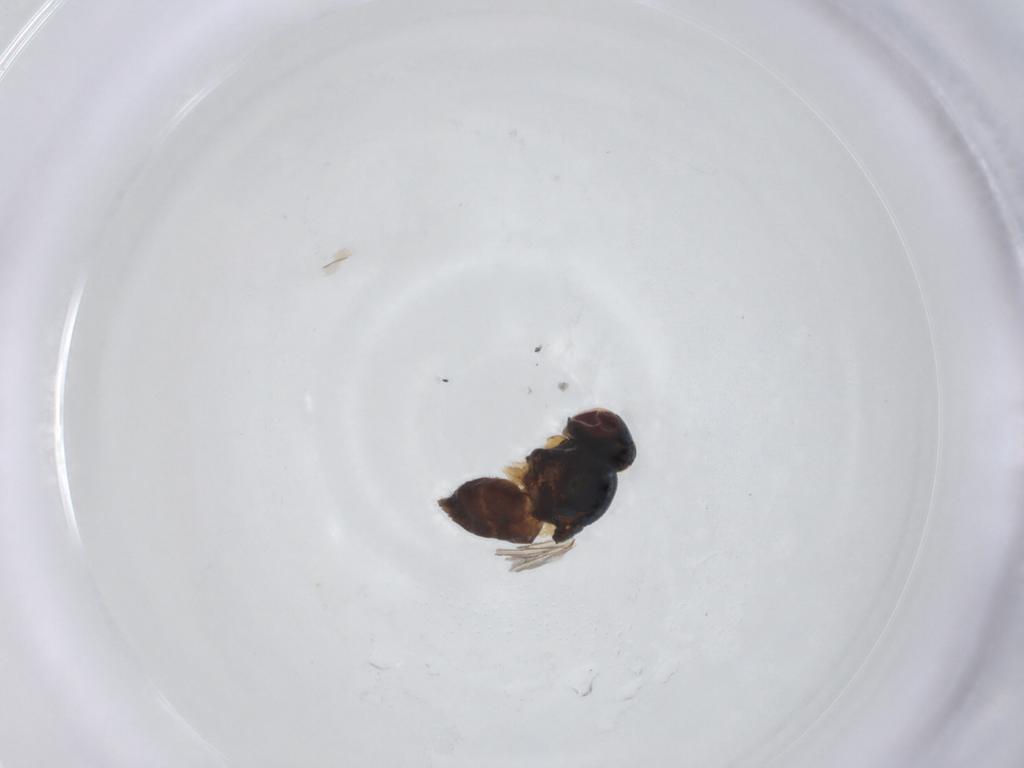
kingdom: Animalia
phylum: Arthropoda
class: Insecta
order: Diptera
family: Chloropidae
